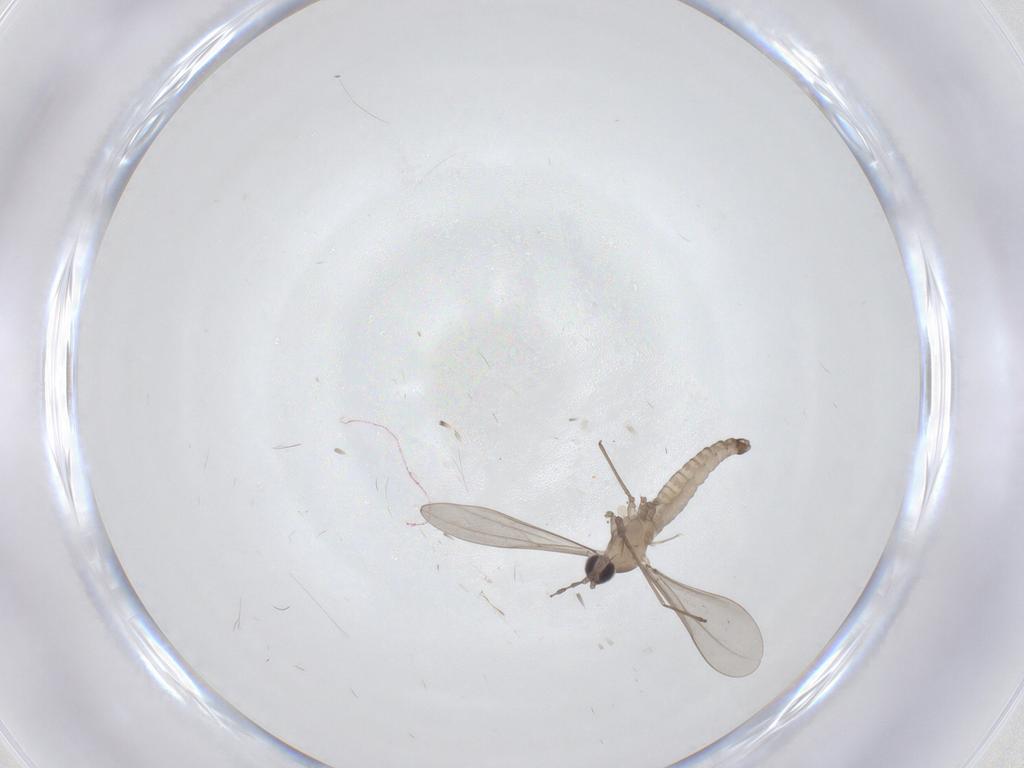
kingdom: Animalia
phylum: Arthropoda
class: Insecta
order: Diptera
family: Cecidomyiidae
